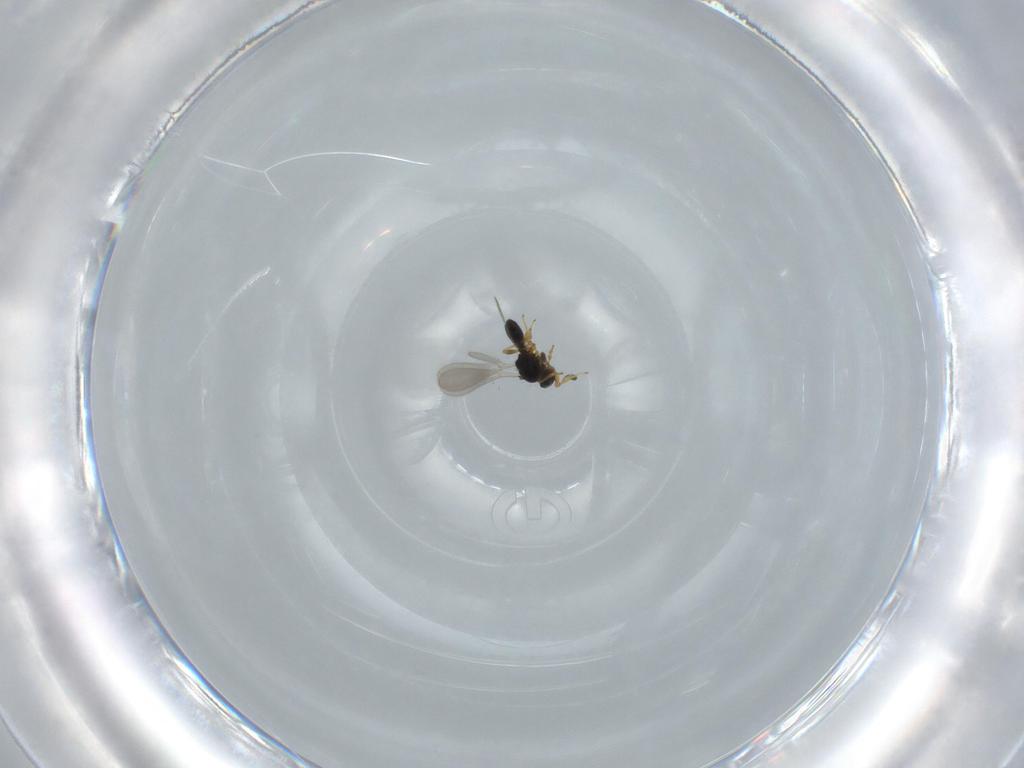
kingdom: Animalia
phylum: Arthropoda
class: Insecta
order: Hymenoptera
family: Platygastridae
